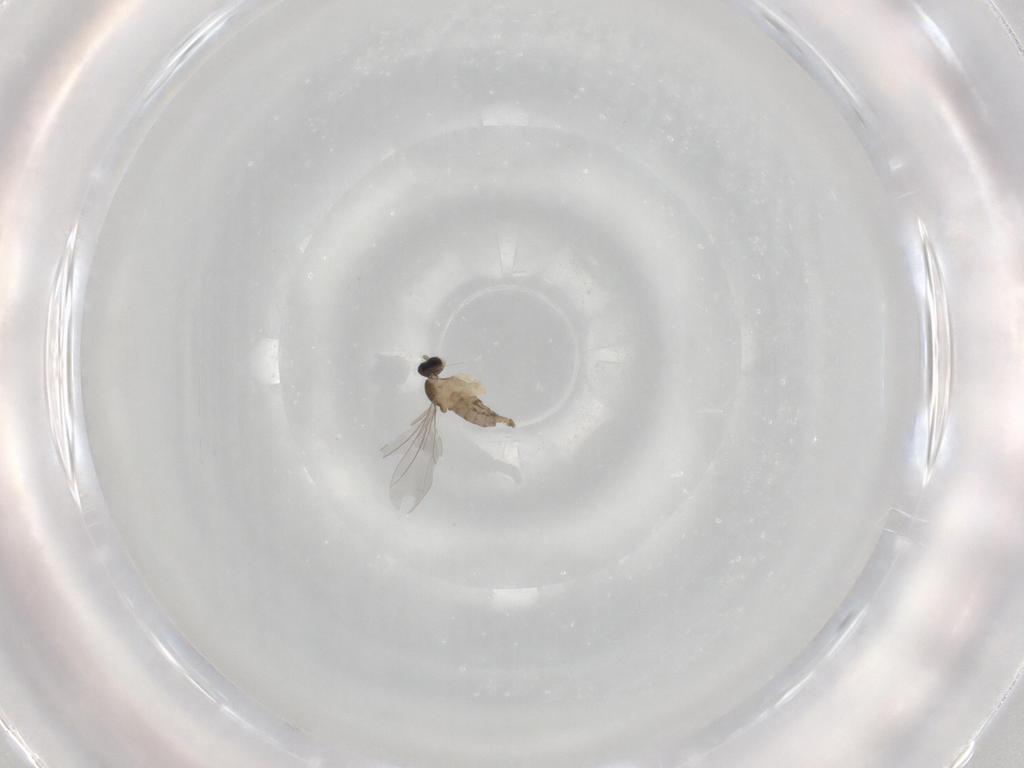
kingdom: Animalia
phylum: Arthropoda
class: Insecta
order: Diptera
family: Cecidomyiidae
